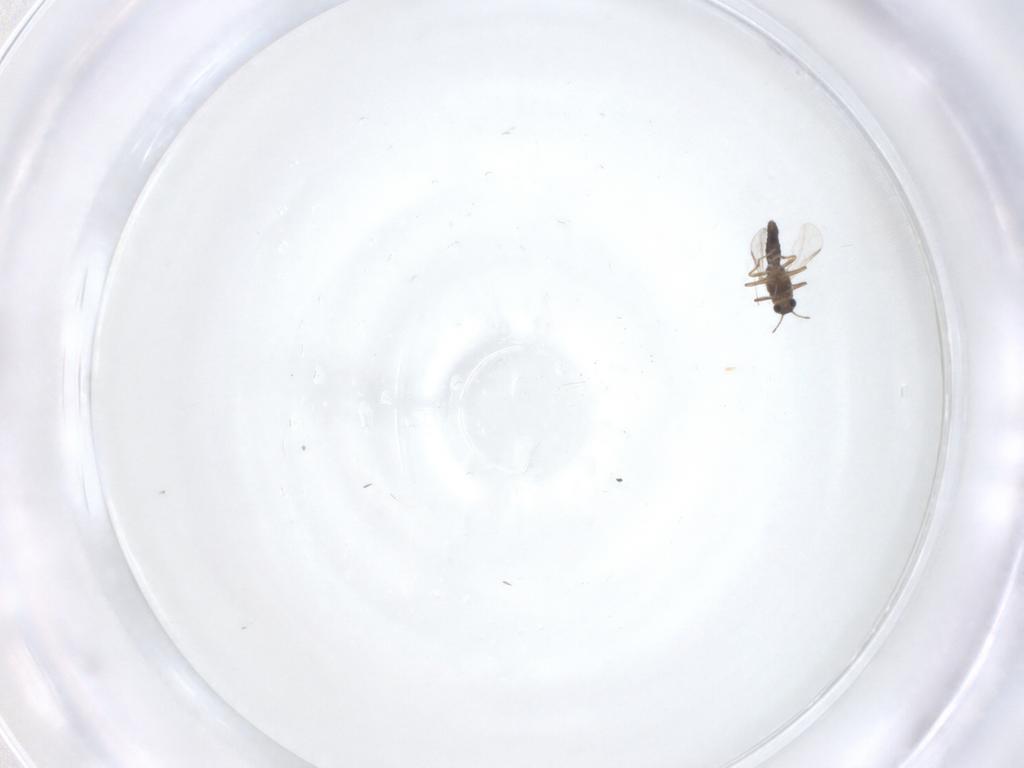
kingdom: Animalia
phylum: Arthropoda
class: Insecta
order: Diptera
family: Chironomidae
